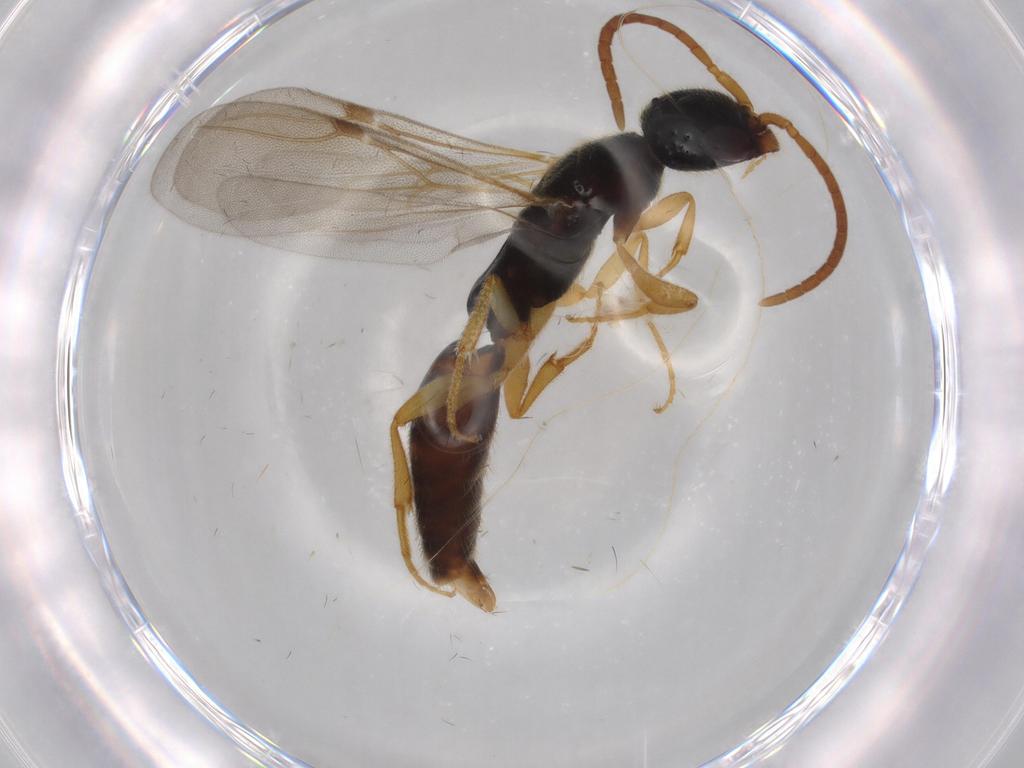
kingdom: Animalia
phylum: Arthropoda
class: Insecta
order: Hymenoptera
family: Bethylidae
